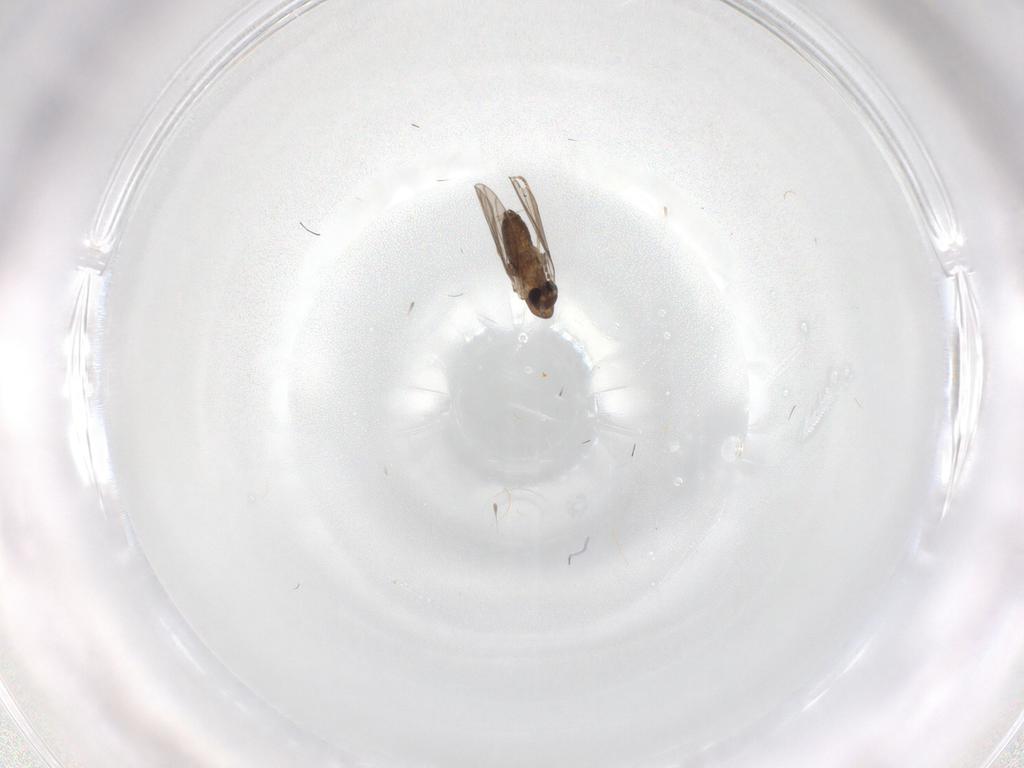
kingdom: Animalia
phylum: Arthropoda
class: Insecta
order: Diptera
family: Psychodidae
